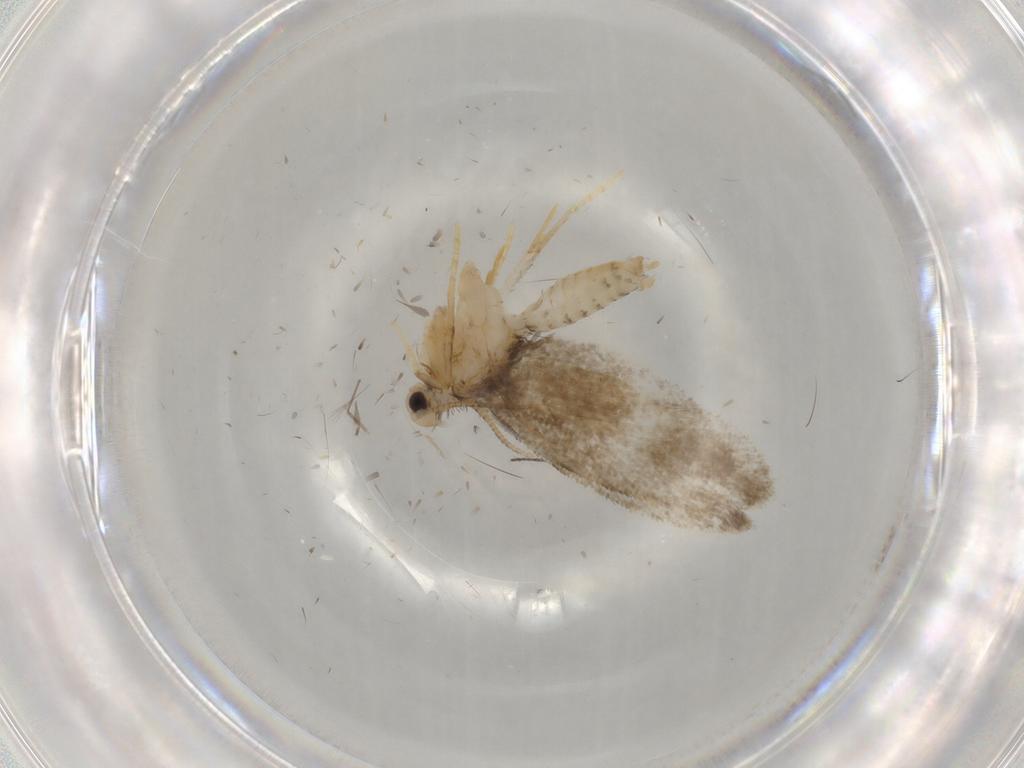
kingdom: Animalia
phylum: Arthropoda
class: Insecta
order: Lepidoptera
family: Psychidae
